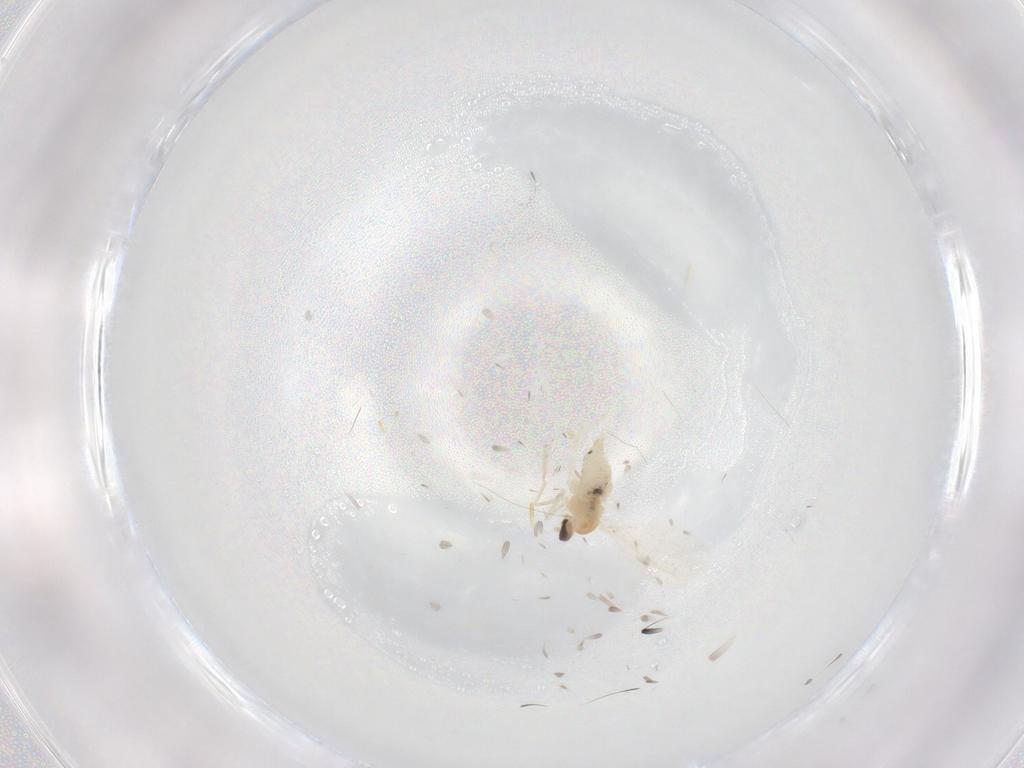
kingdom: Animalia
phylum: Arthropoda
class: Insecta
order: Diptera
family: Cecidomyiidae
